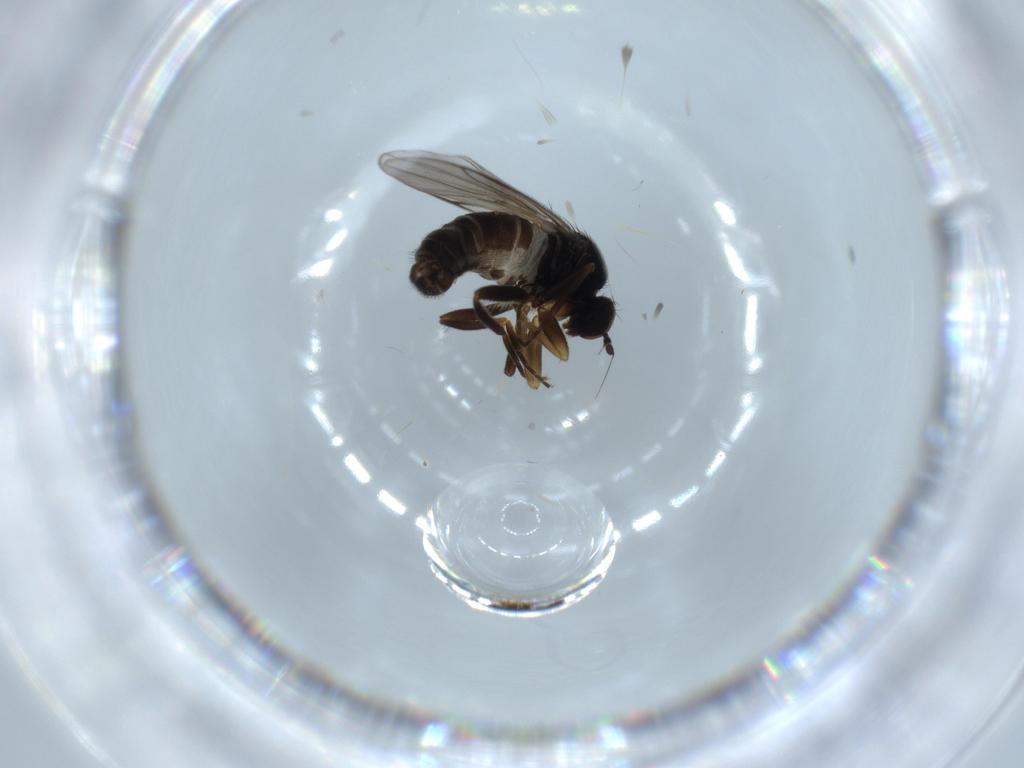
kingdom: Animalia
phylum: Arthropoda
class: Insecta
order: Diptera
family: Hybotidae
